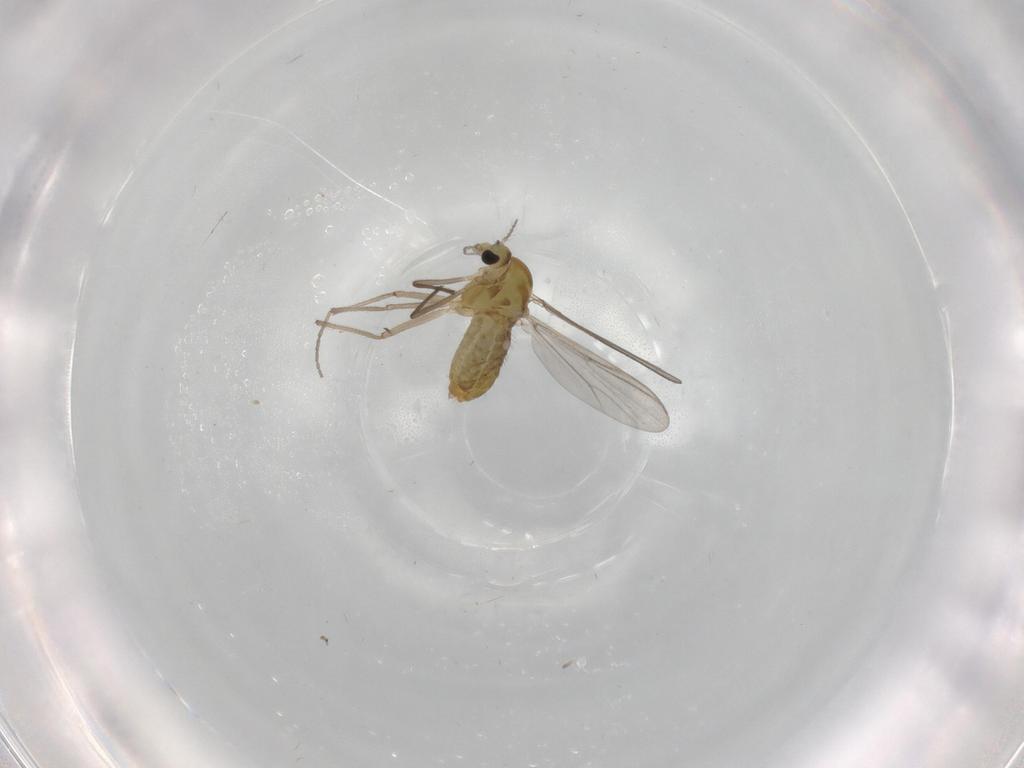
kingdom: Animalia
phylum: Arthropoda
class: Insecta
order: Diptera
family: Chironomidae
